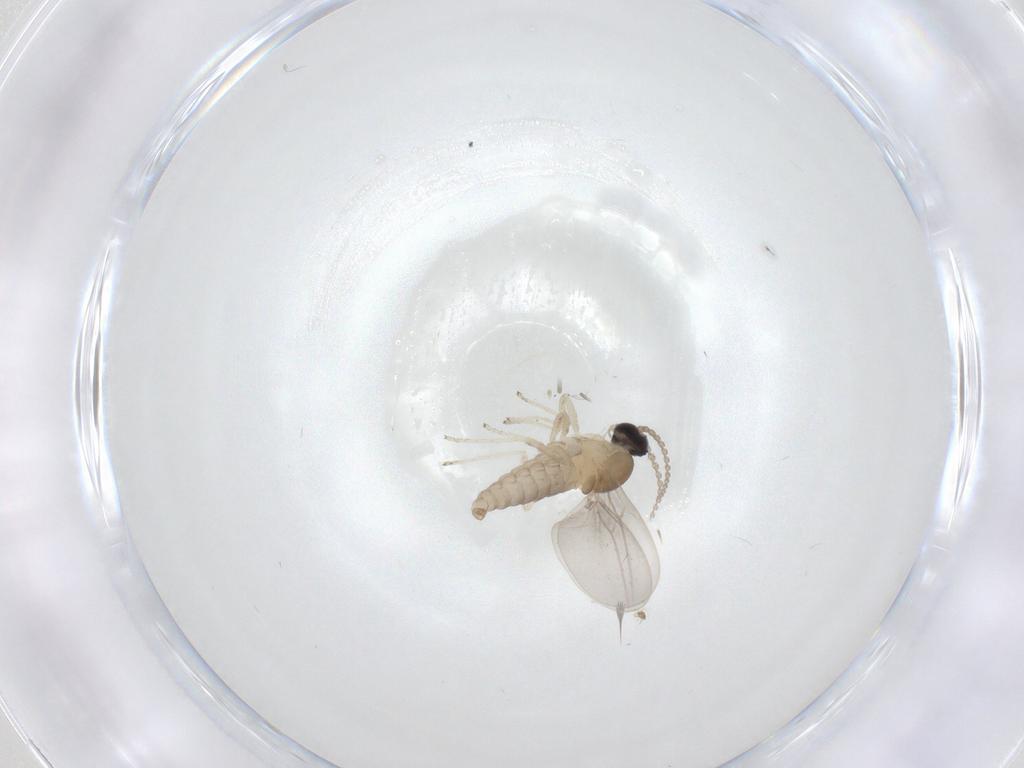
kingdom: Animalia
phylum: Arthropoda
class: Insecta
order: Diptera
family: Cecidomyiidae
